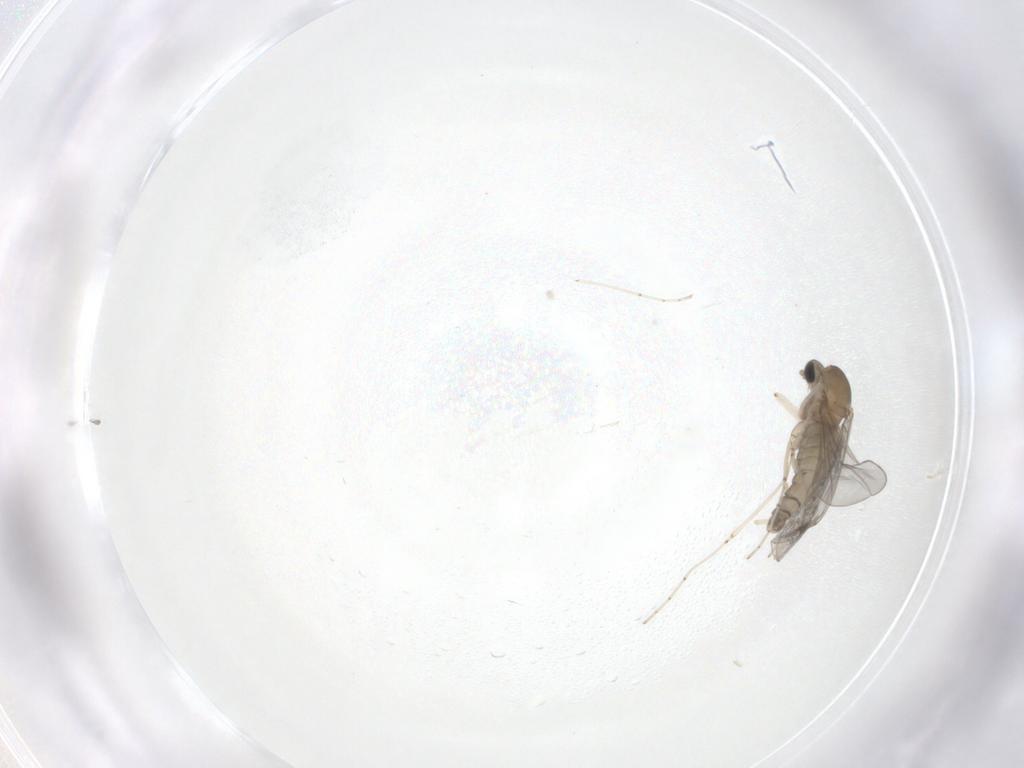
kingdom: Animalia
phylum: Arthropoda
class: Insecta
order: Diptera
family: Cecidomyiidae
